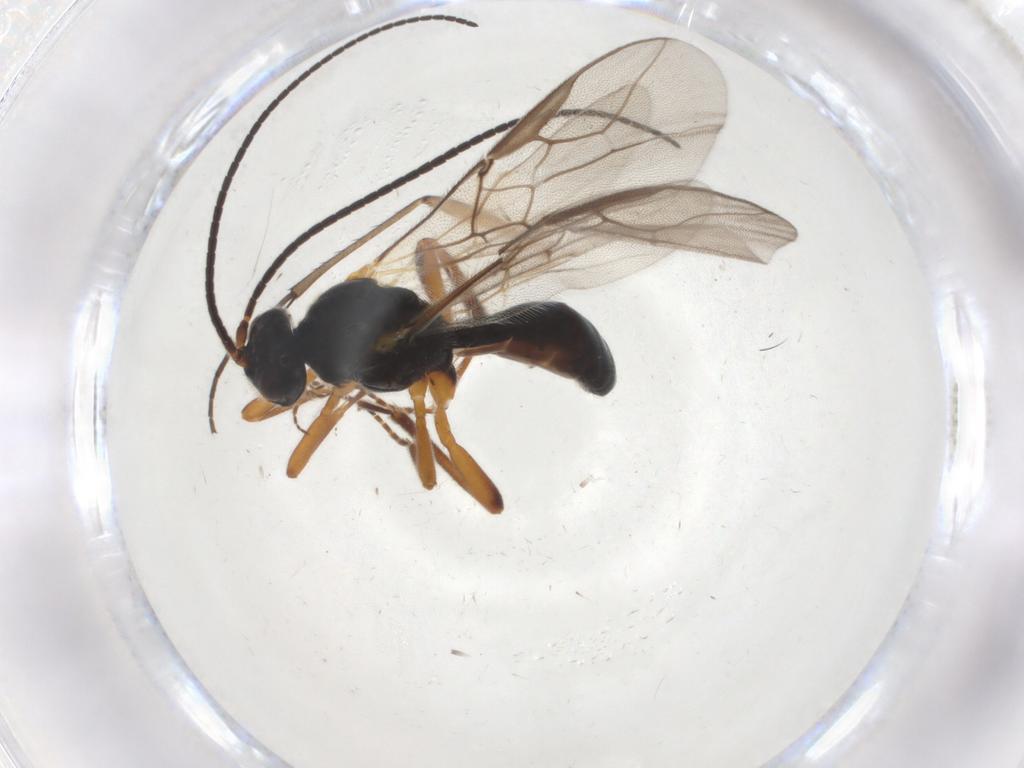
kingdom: Animalia
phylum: Arthropoda
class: Insecta
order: Hymenoptera
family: Braconidae
